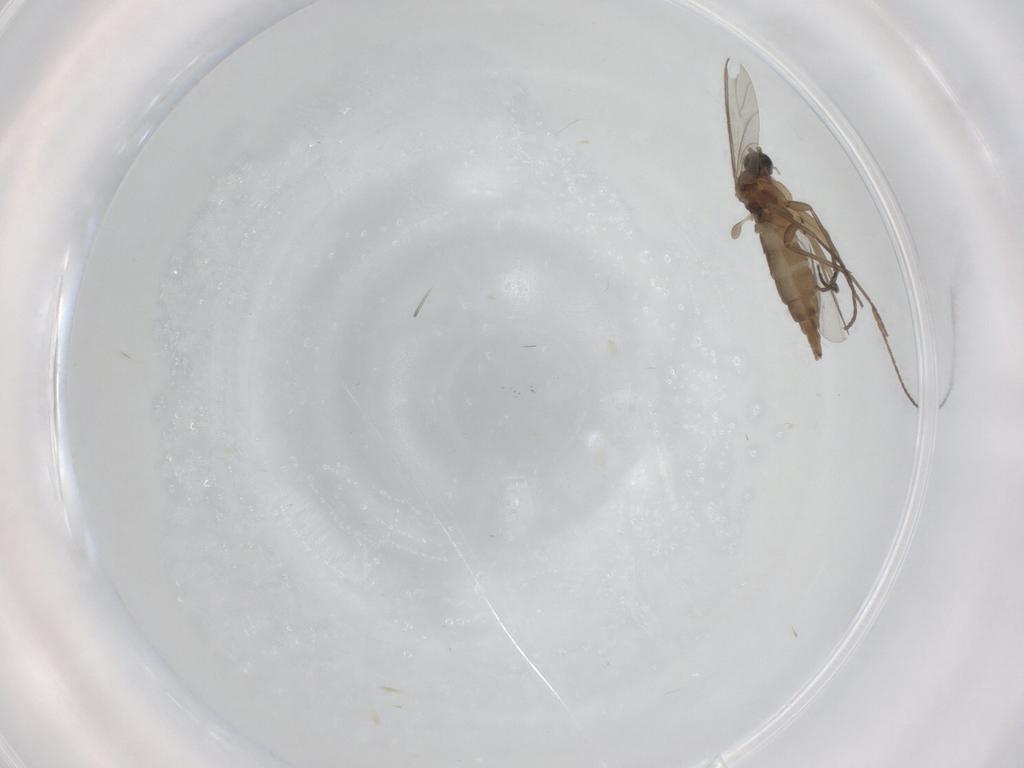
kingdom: Animalia
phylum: Arthropoda
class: Insecta
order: Diptera
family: Sciaridae
